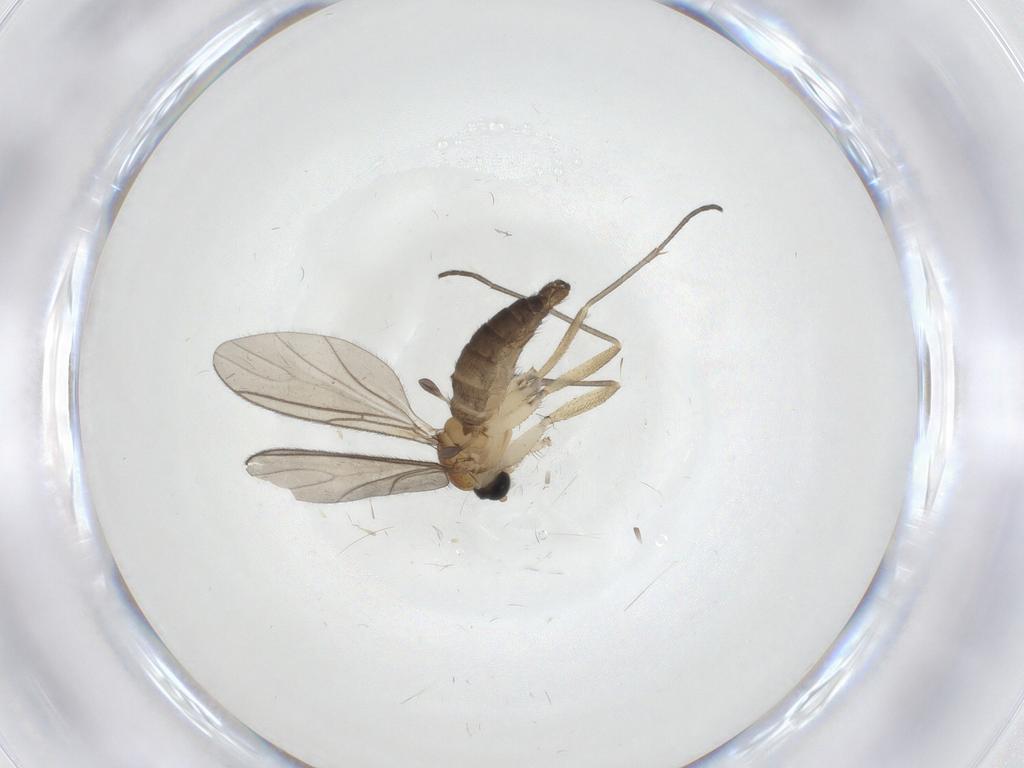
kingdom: Animalia
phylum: Arthropoda
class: Insecta
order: Diptera
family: Sciaridae
